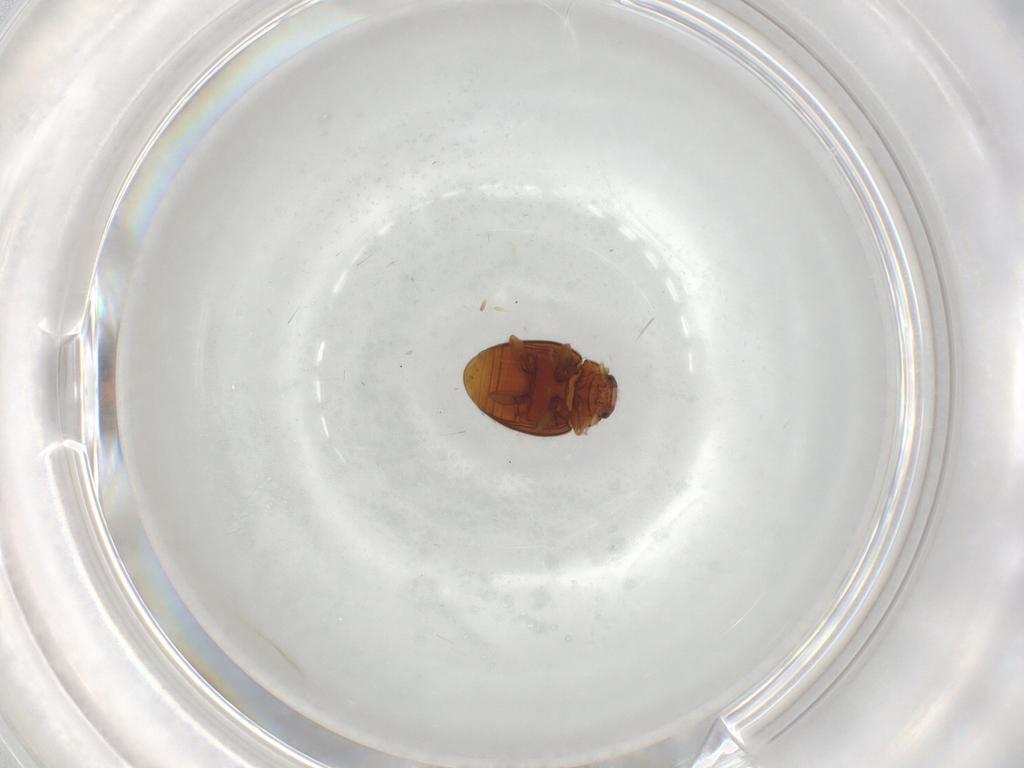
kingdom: Animalia
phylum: Arthropoda
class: Insecta
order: Coleoptera
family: Coccinellidae
